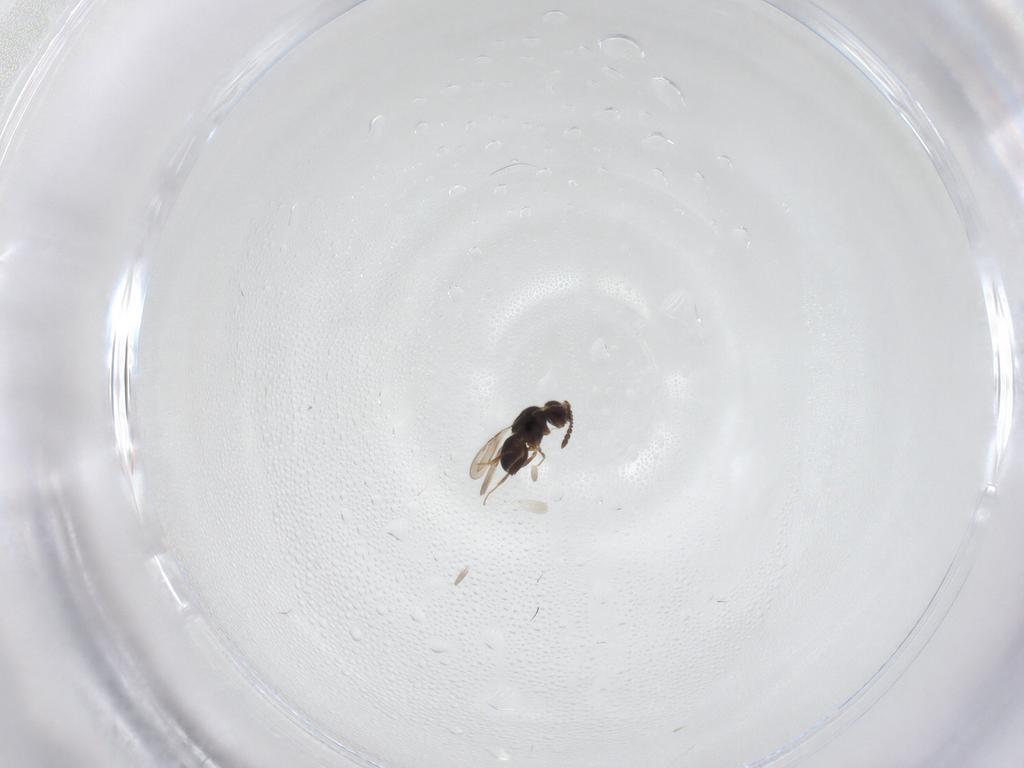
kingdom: Animalia
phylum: Arthropoda
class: Insecta
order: Hymenoptera
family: Ceraphronidae
